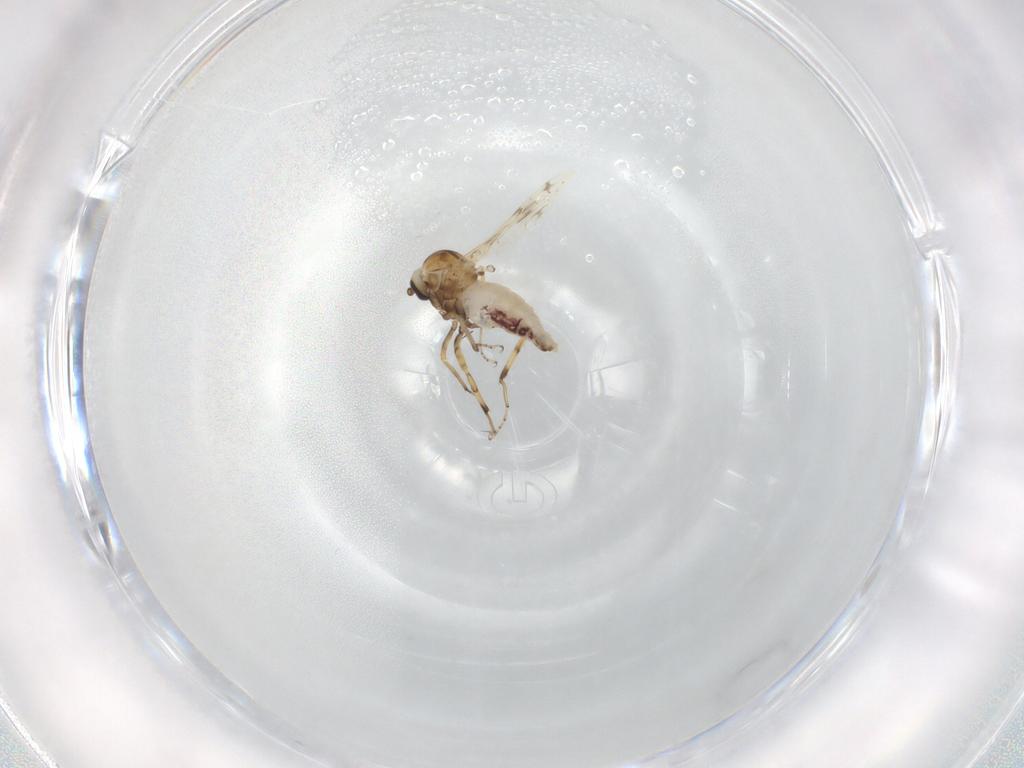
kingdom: Animalia
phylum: Arthropoda
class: Insecta
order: Diptera
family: Ceratopogonidae
